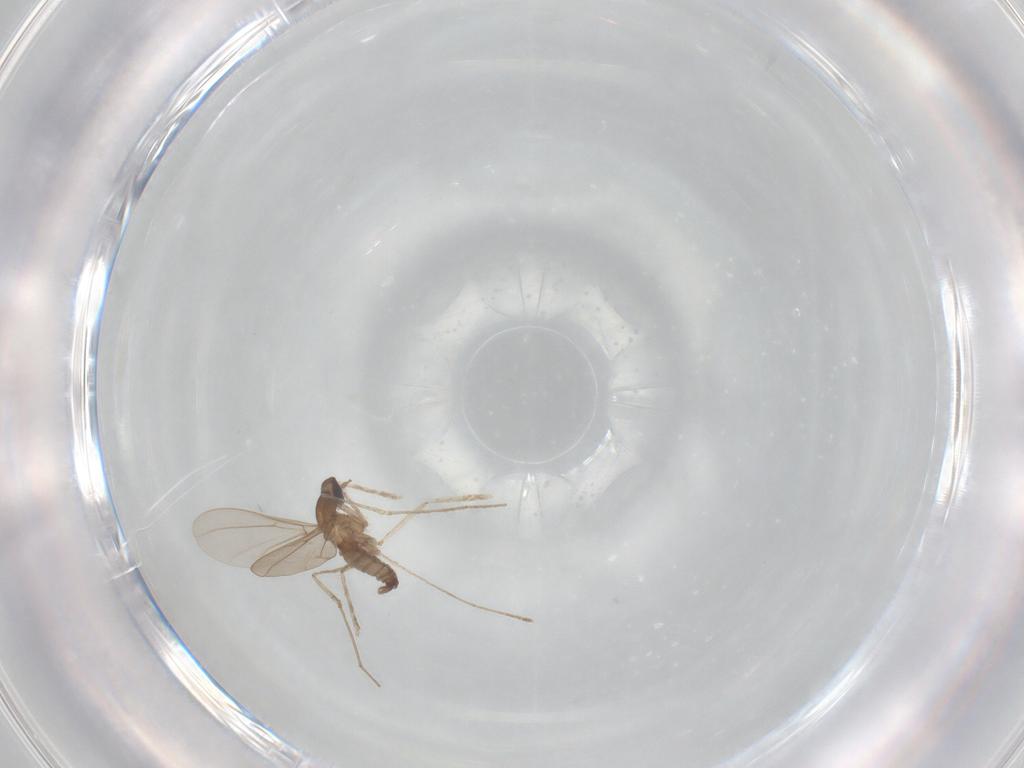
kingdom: Animalia
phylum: Arthropoda
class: Insecta
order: Diptera
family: Cecidomyiidae
